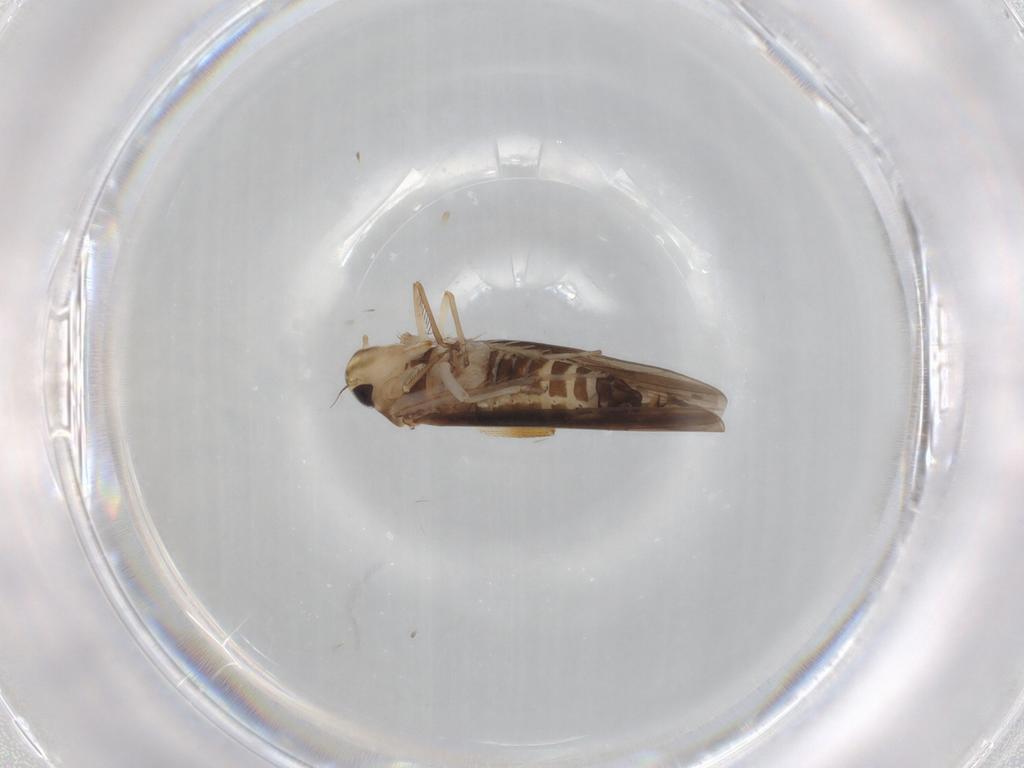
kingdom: Animalia
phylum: Arthropoda
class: Insecta
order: Hemiptera
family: Cicadellidae
